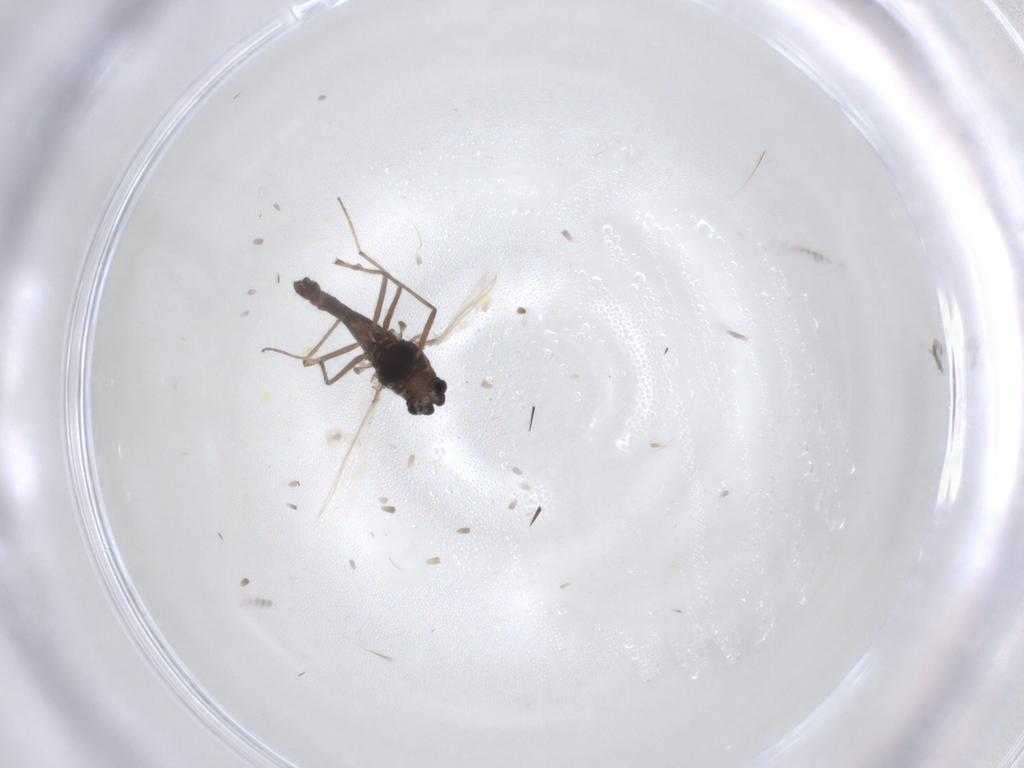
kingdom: Animalia
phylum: Arthropoda
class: Insecta
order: Diptera
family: Chironomidae
